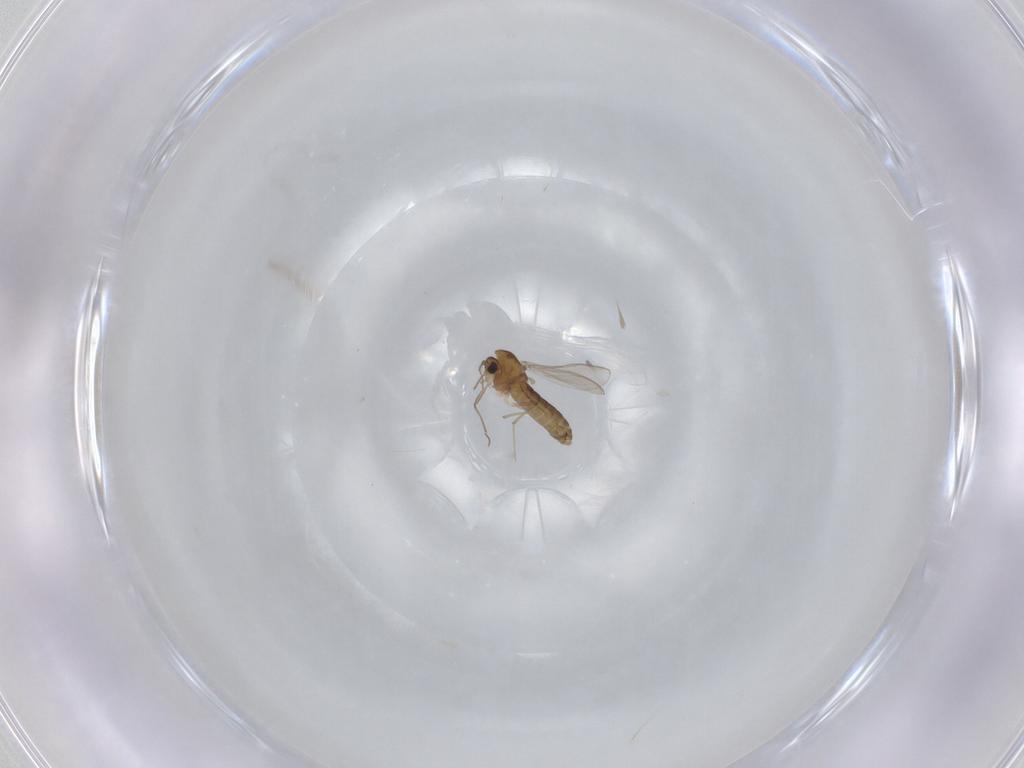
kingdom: Animalia
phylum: Arthropoda
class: Insecta
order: Diptera
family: Chironomidae
